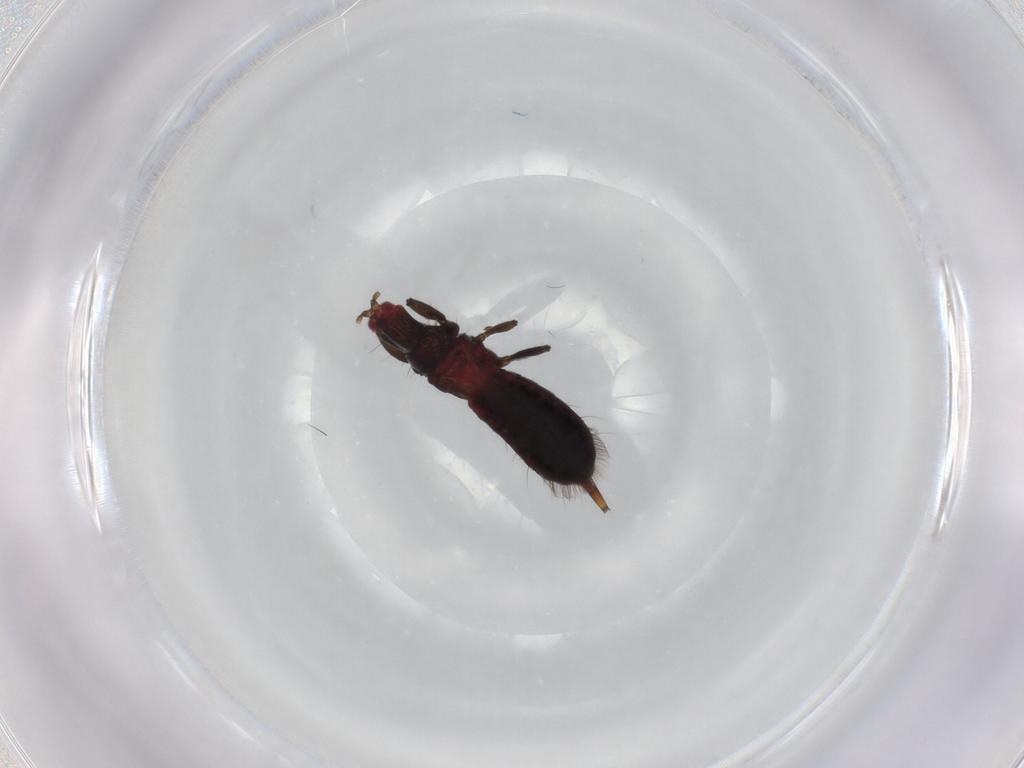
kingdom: Animalia
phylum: Arthropoda
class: Insecta
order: Thysanoptera
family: Phlaeothripidae
